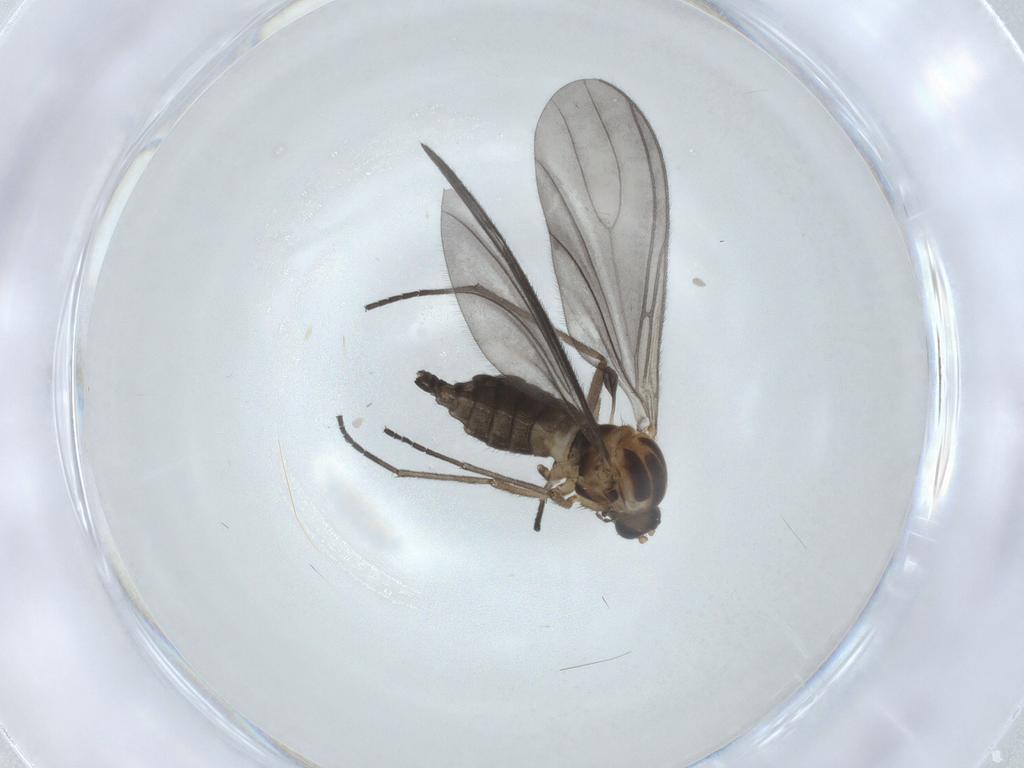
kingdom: Animalia
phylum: Arthropoda
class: Insecta
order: Diptera
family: Sciaridae
